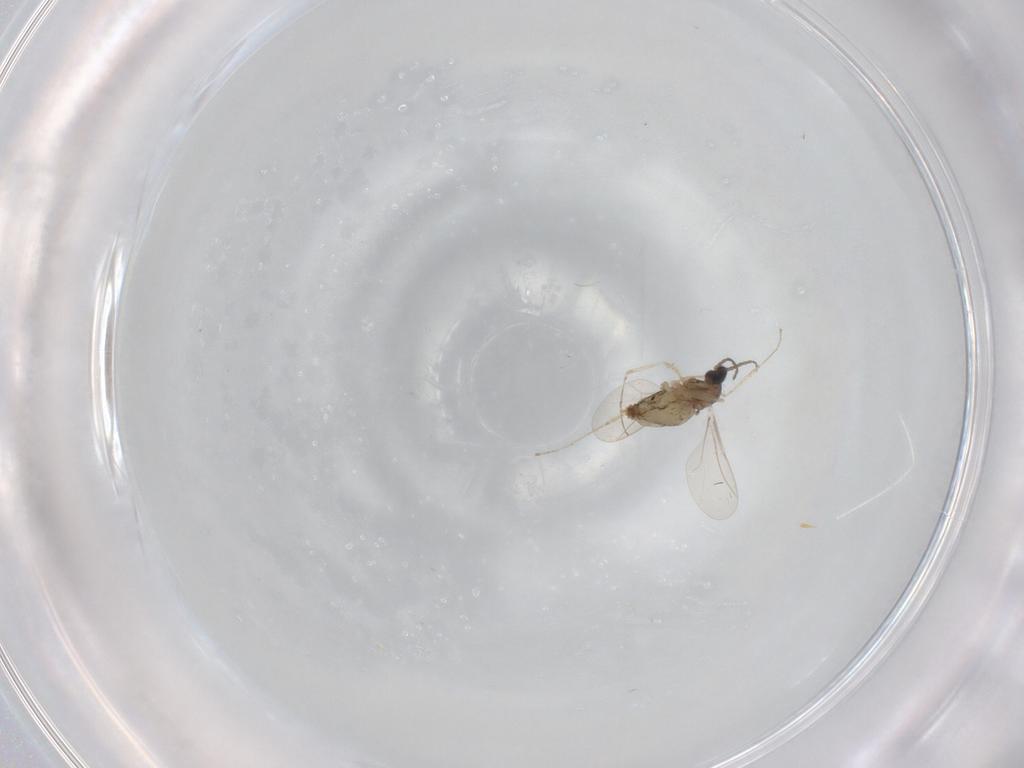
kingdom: Animalia
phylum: Arthropoda
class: Insecta
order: Diptera
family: Cecidomyiidae
